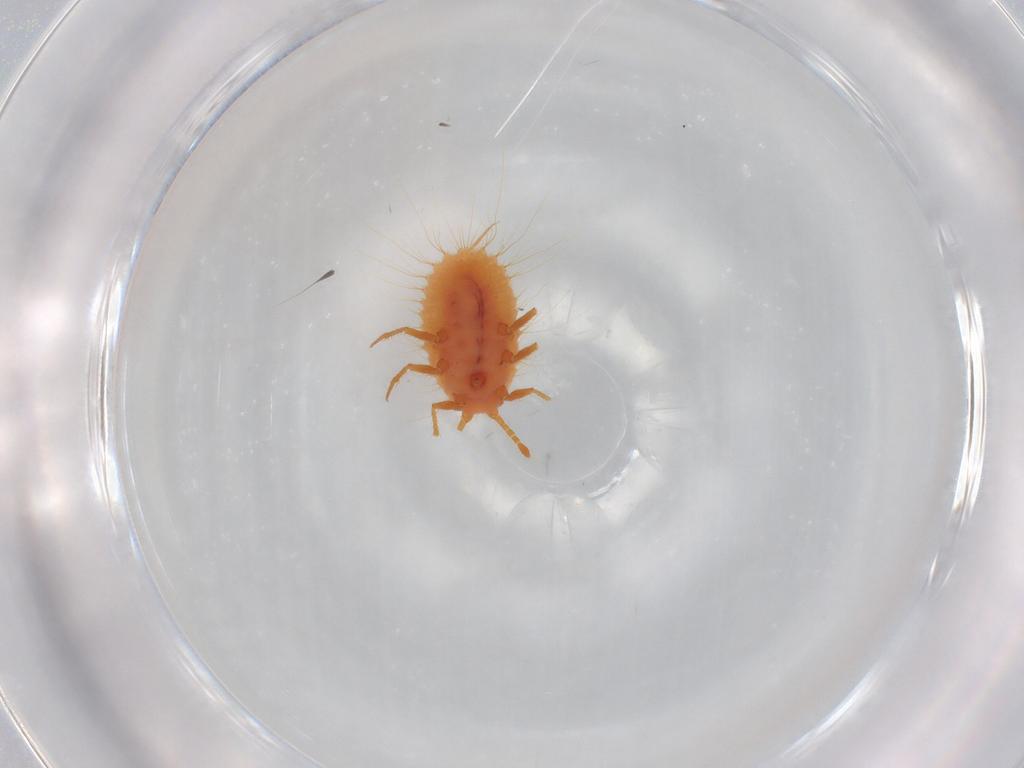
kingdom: Animalia
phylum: Arthropoda
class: Insecta
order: Hemiptera
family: Coccoidea_incertae_sedis
